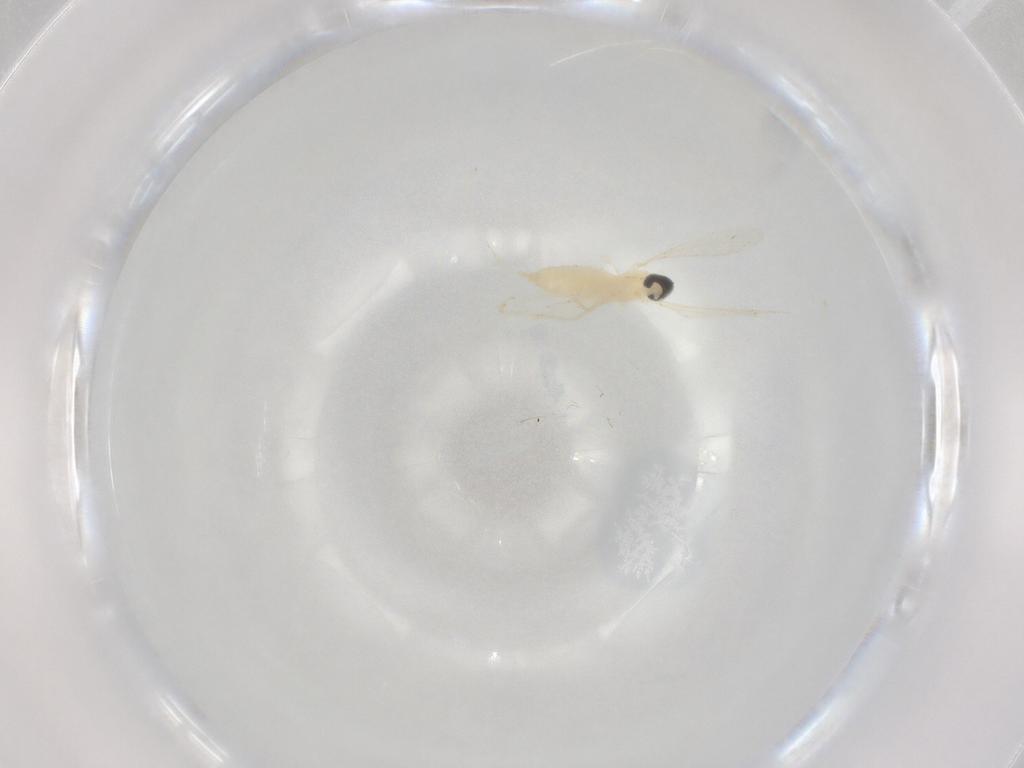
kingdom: Animalia
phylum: Arthropoda
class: Insecta
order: Diptera
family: Cecidomyiidae
